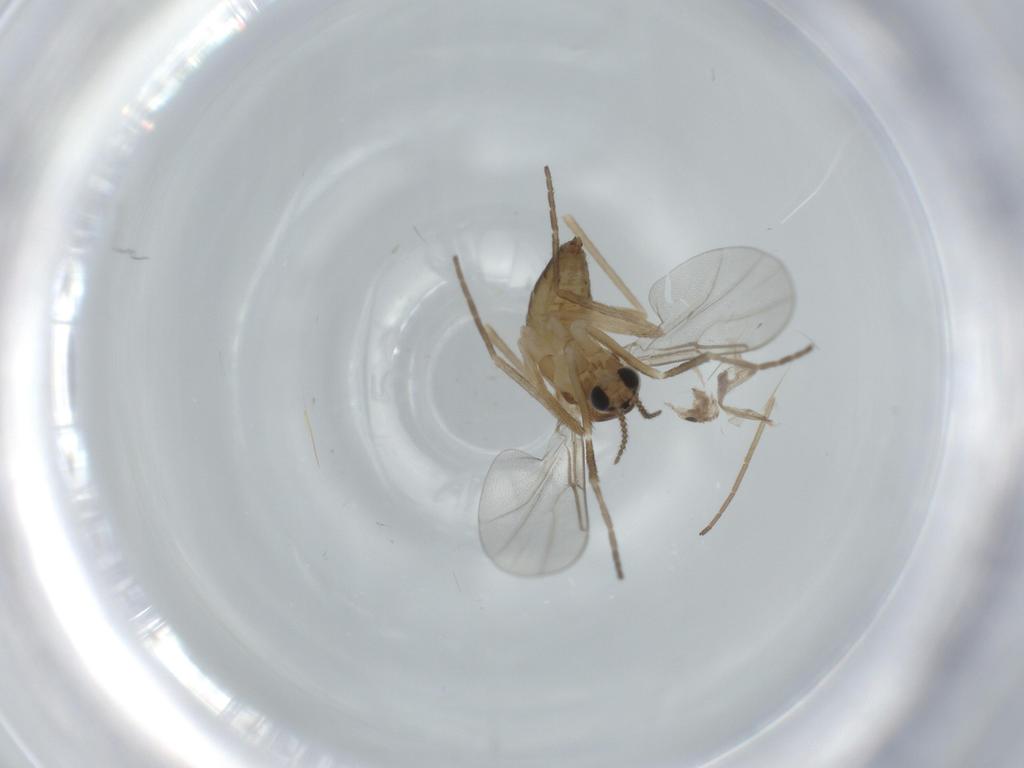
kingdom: Animalia
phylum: Arthropoda
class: Insecta
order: Diptera
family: Cecidomyiidae
